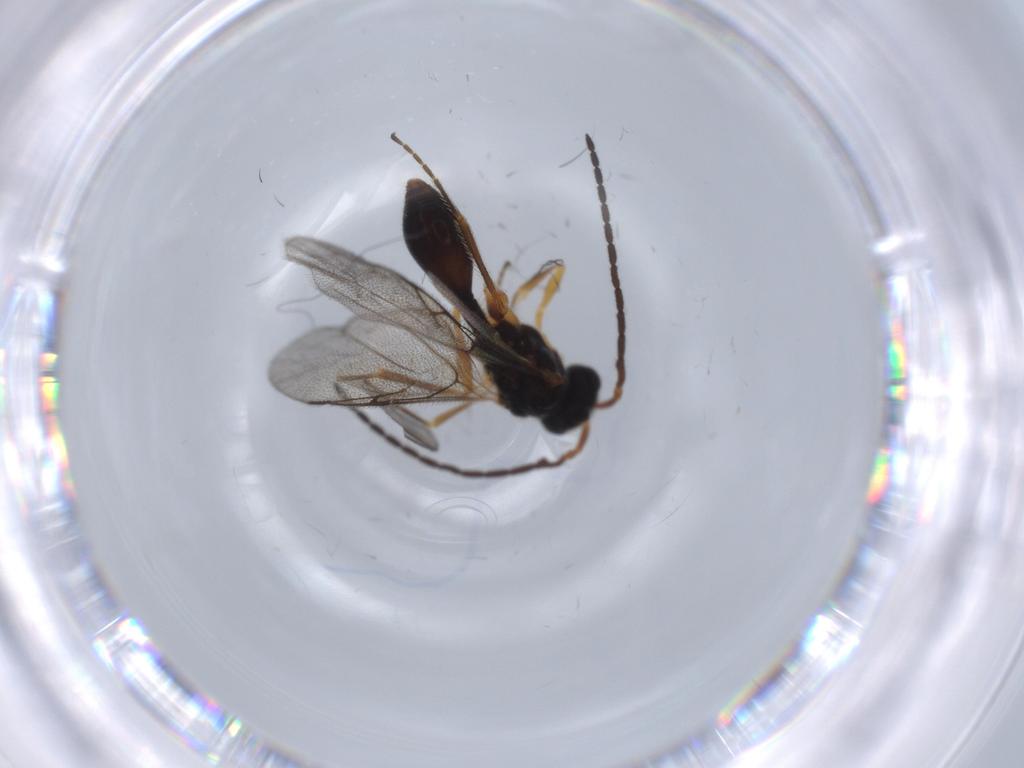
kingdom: Animalia
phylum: Arthropoda
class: Insecta
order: Hymenoptera
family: Diapriidae
